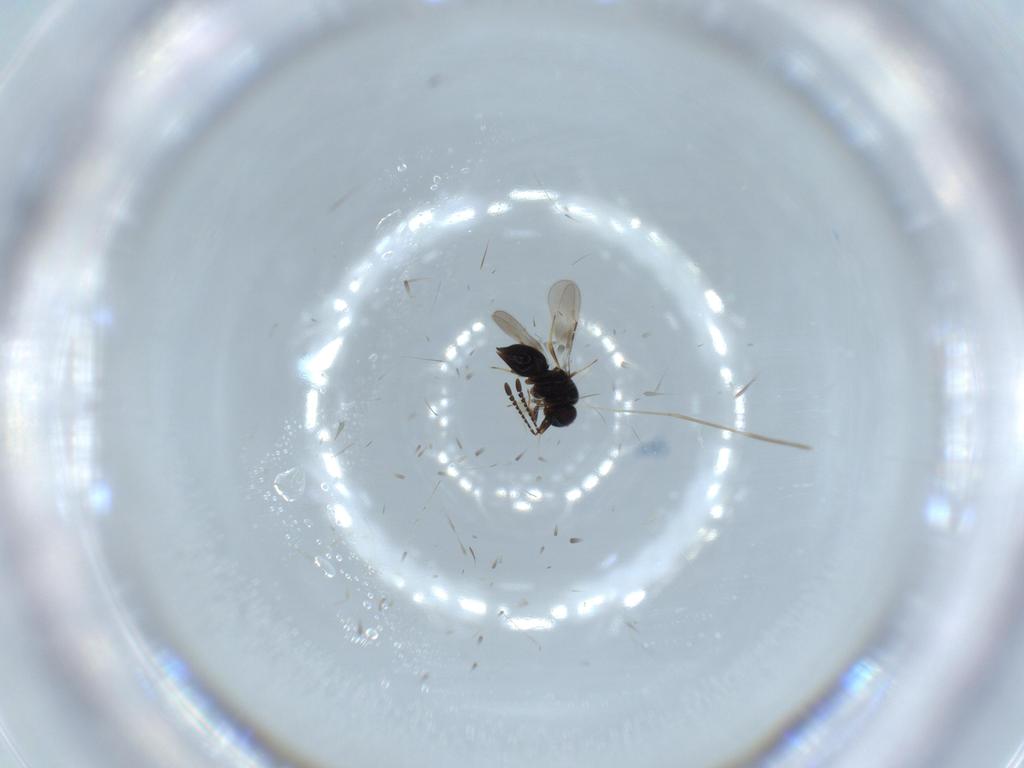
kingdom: Animalia
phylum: Arthropoda
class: Insecta
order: Hymenoptera
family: Ceraphronidae
